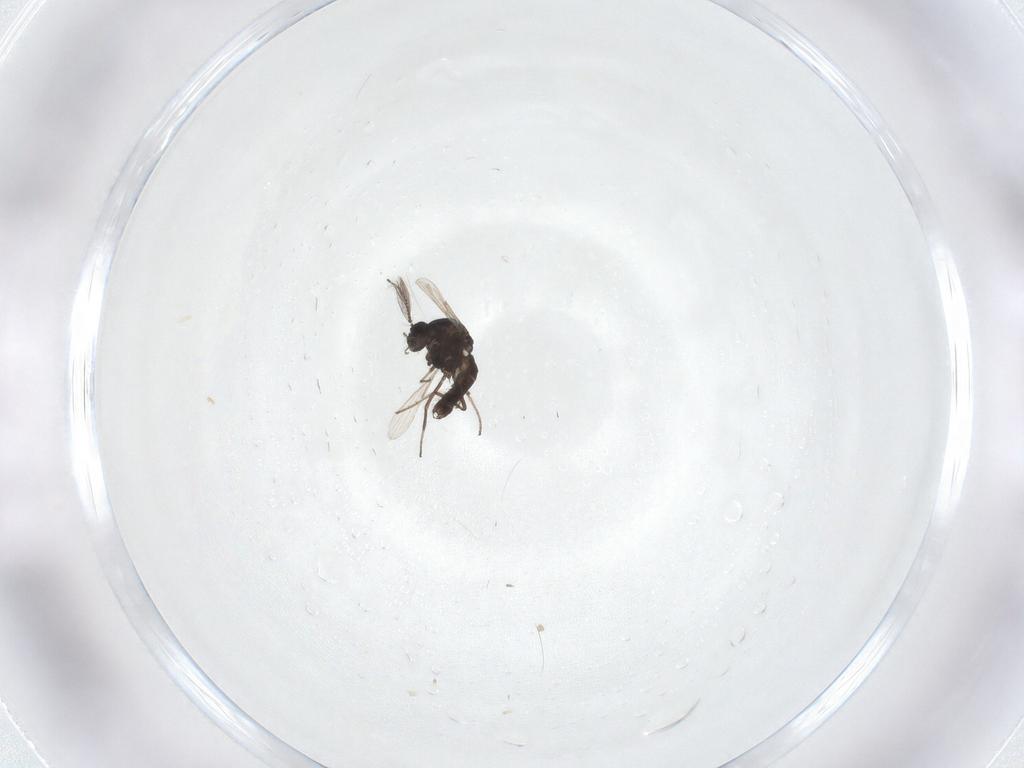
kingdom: Animalia
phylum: Arthropoda
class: Insecta
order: Diptera
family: Ceratopogonidae
